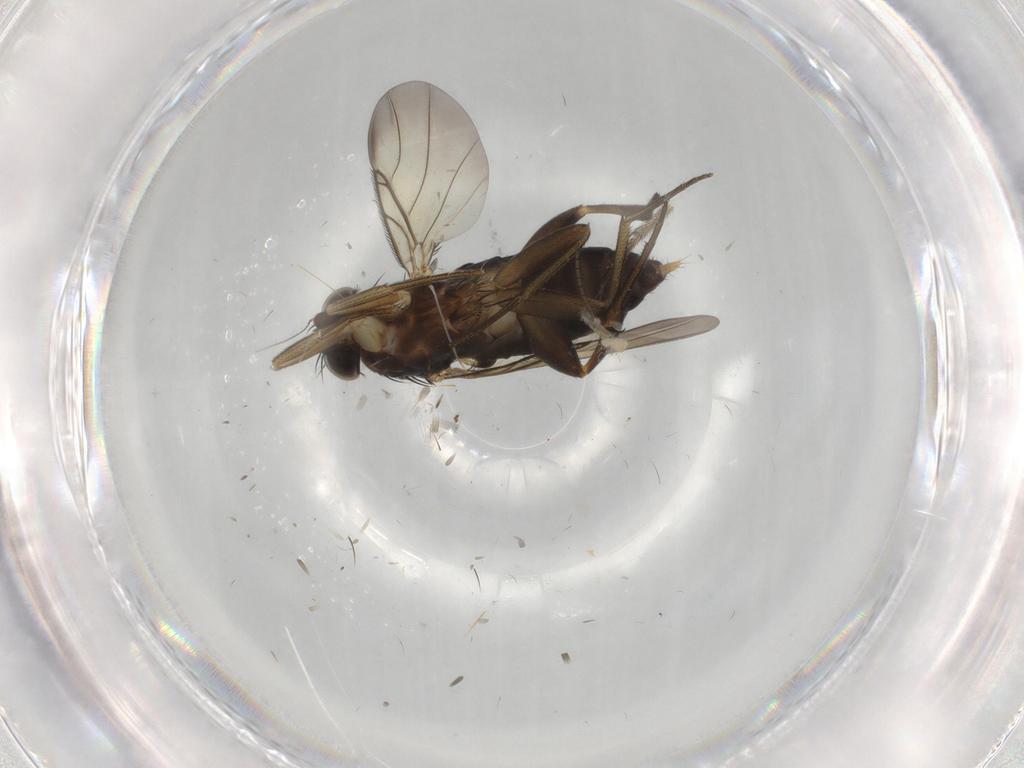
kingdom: Animalia
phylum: Arthropoda
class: Insecta
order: Diptera
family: Phoridae
